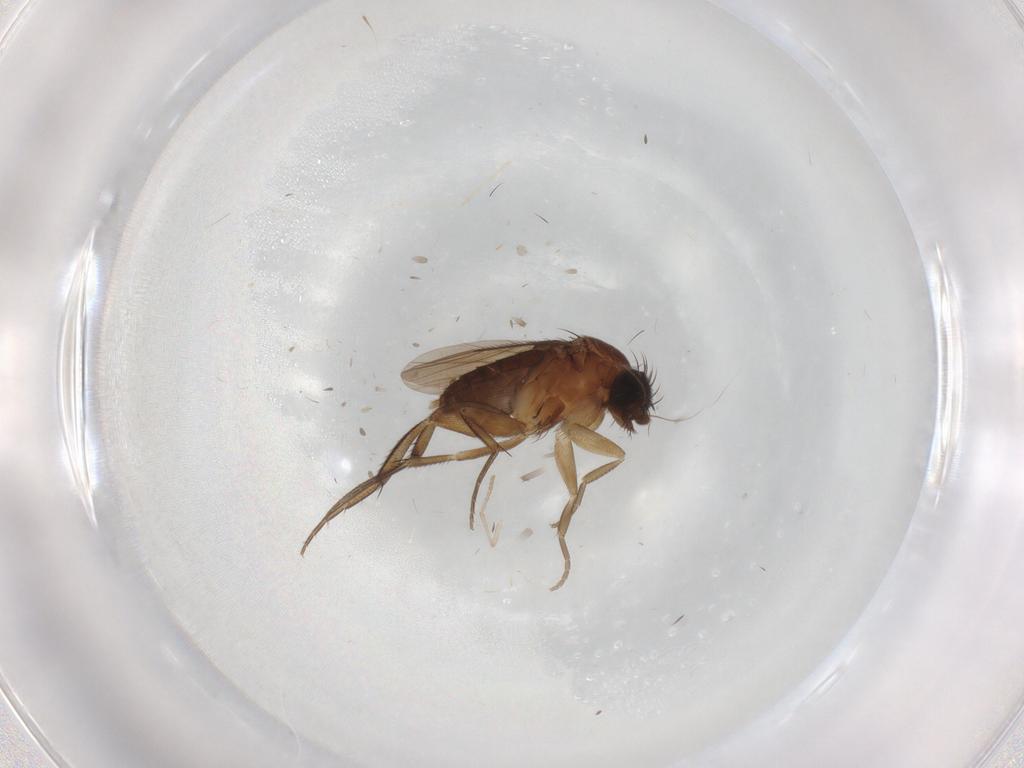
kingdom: Animalia
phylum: Arthropoda
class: Insecta
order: Diptera
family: Phoridae
